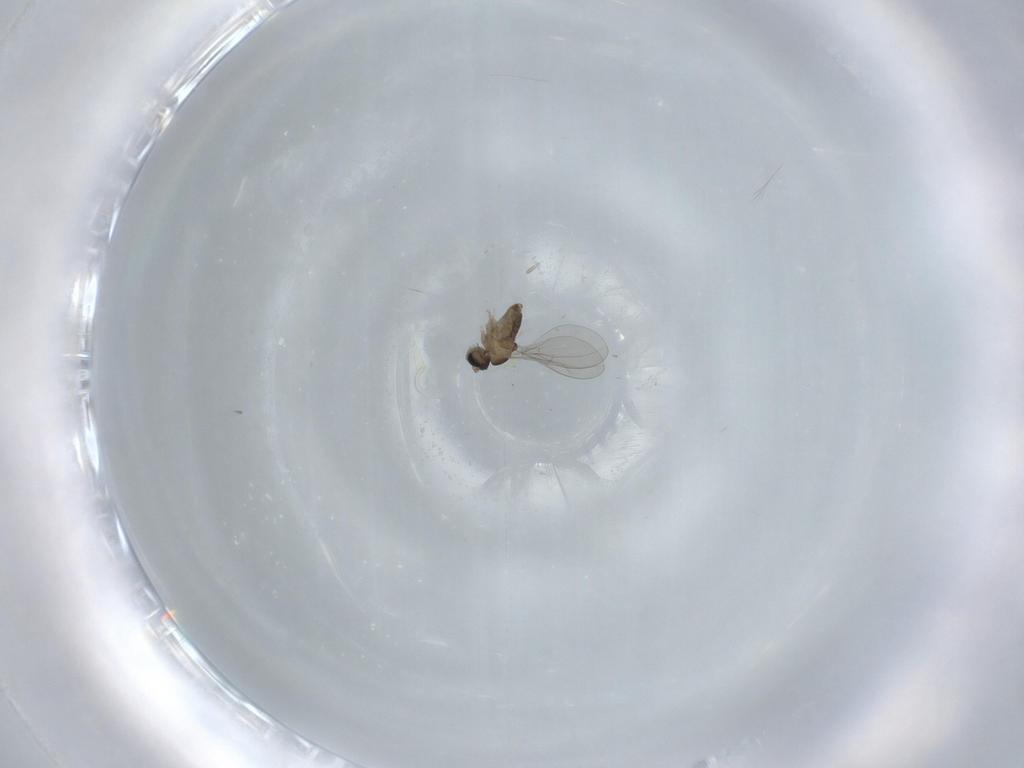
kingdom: Animalia
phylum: Arthropoda
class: Insecta
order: Diptera
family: Cecidomyiidae
